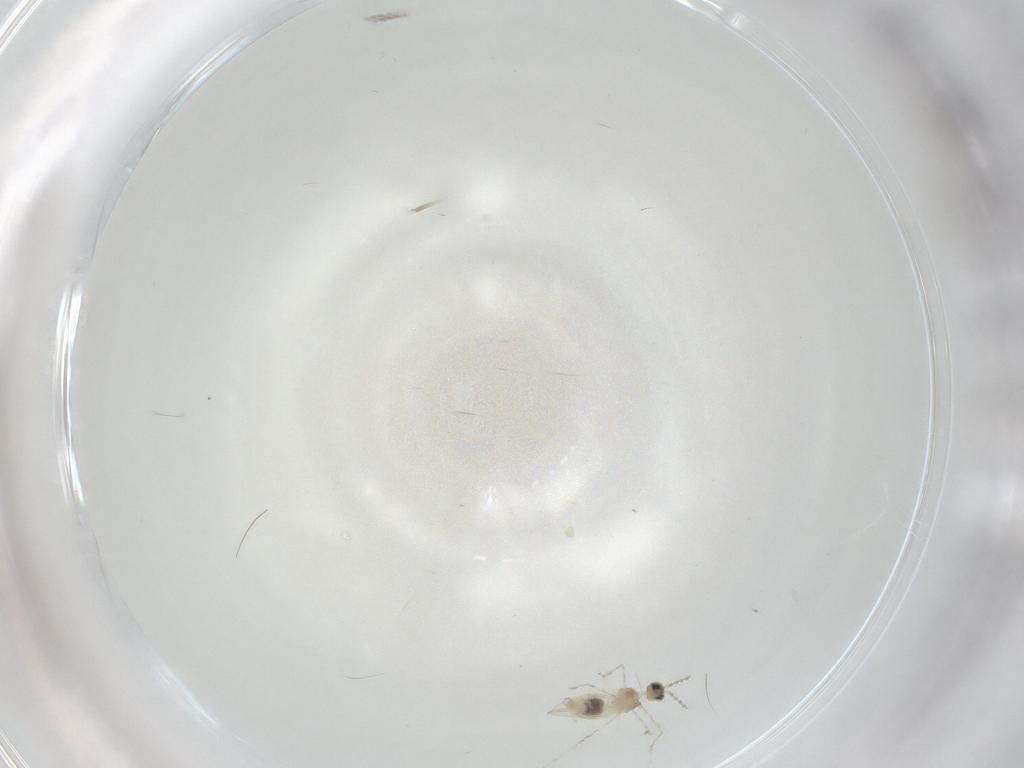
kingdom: Animalia
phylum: Arthropoda
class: Insecta
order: Diptera
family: Cecidomyiidae
